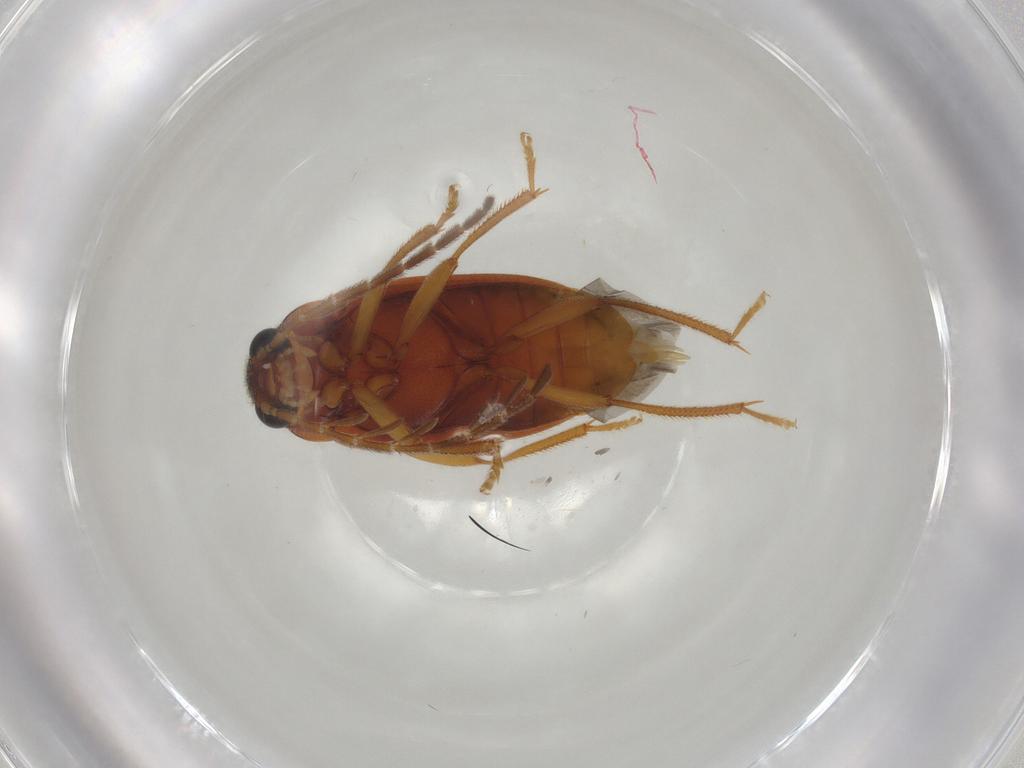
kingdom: Animalia
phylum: Arthropoda
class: Insecta
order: Coleoptera
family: Ptilodactylidae
